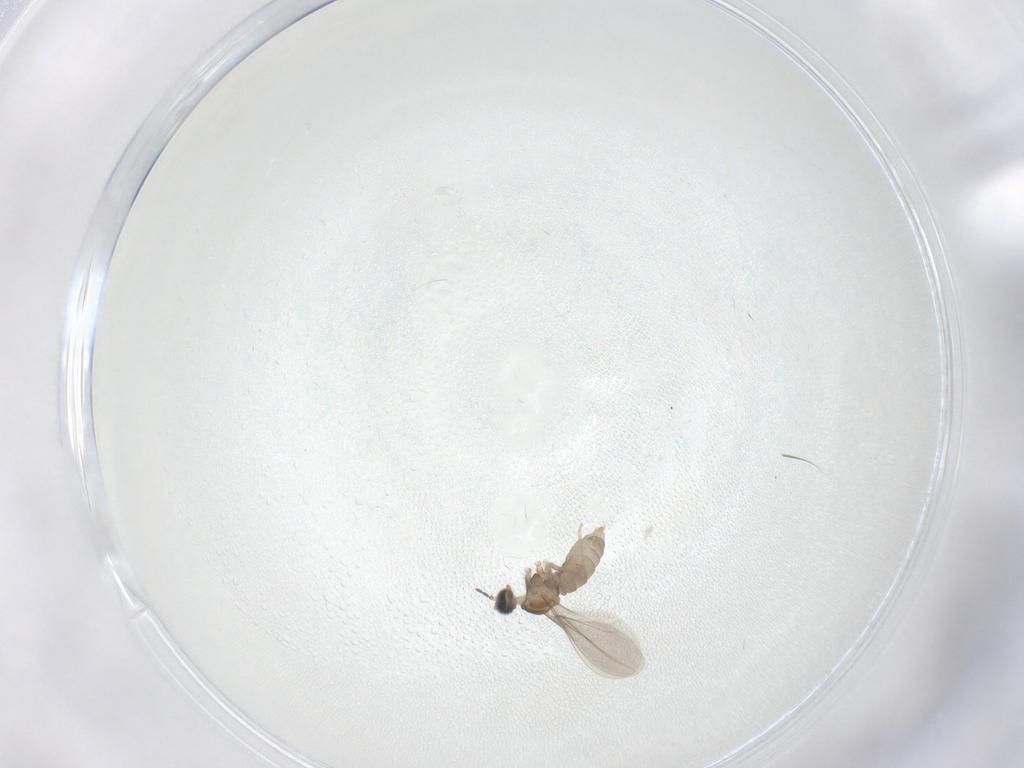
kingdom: Animalia
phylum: Arthropoda
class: Insecta
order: Diptera
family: Cecidomyiidae
